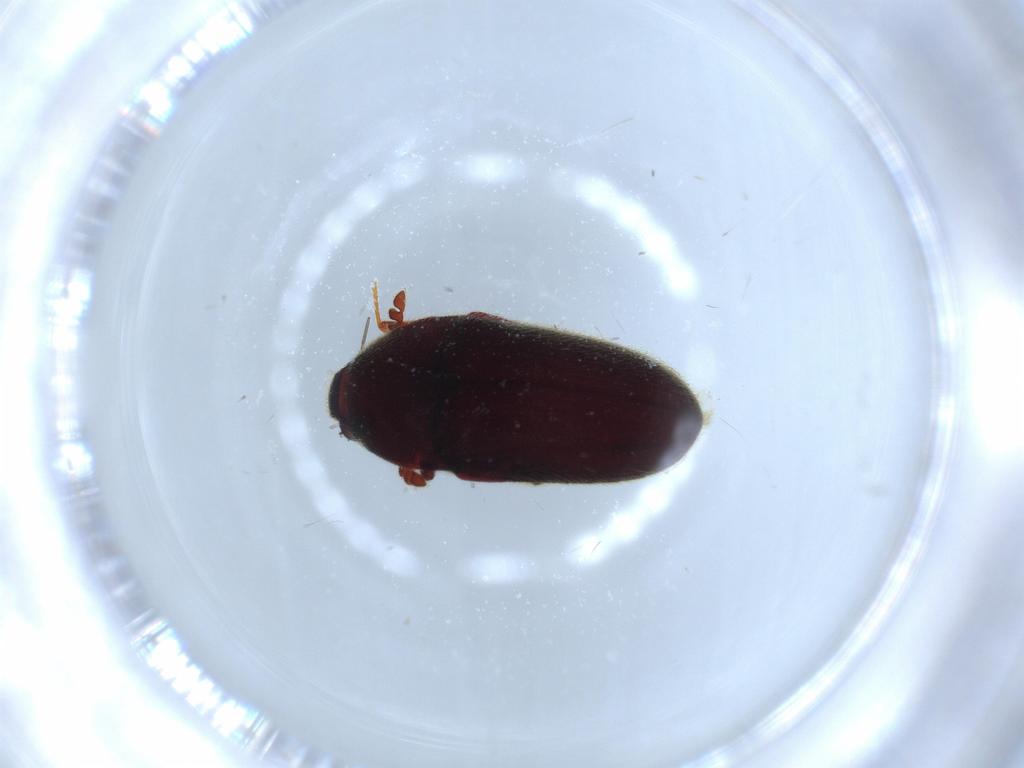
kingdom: Animalia
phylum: Arthropoda
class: Insecta
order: Coleoptera
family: Throscidae
